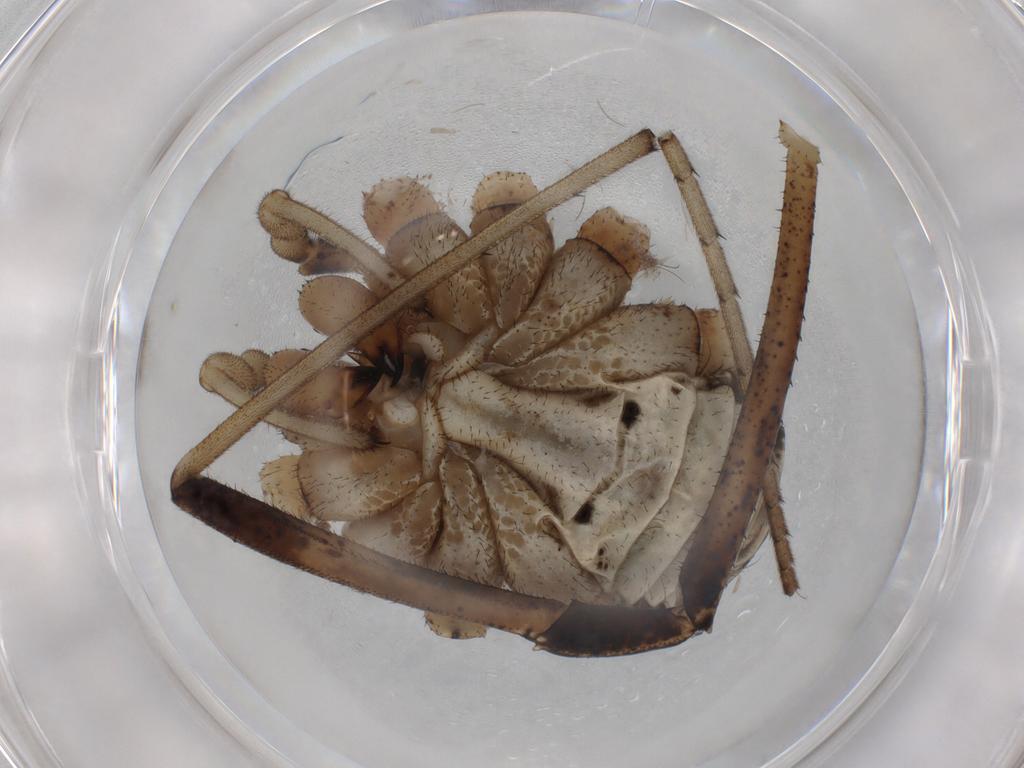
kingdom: Animalia
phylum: Arthropoda
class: Arachnida
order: Opiliones
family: Phalangiidae
